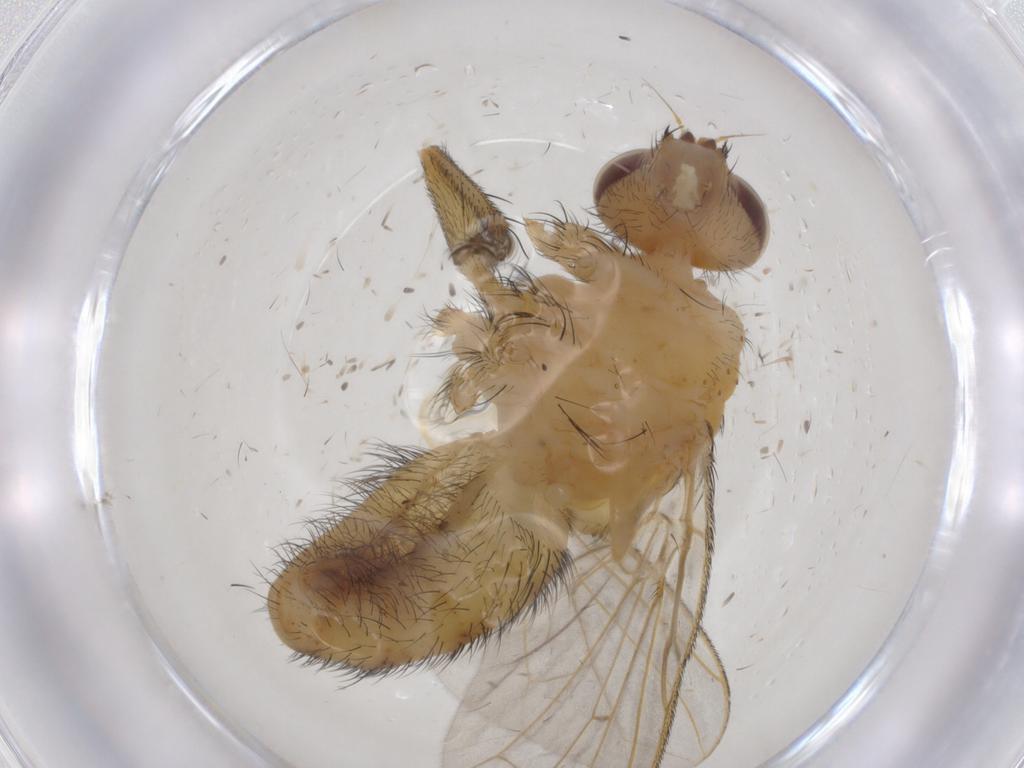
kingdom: Animalia
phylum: Arthropoda
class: Insecta
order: Diptera
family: Tachinidae
